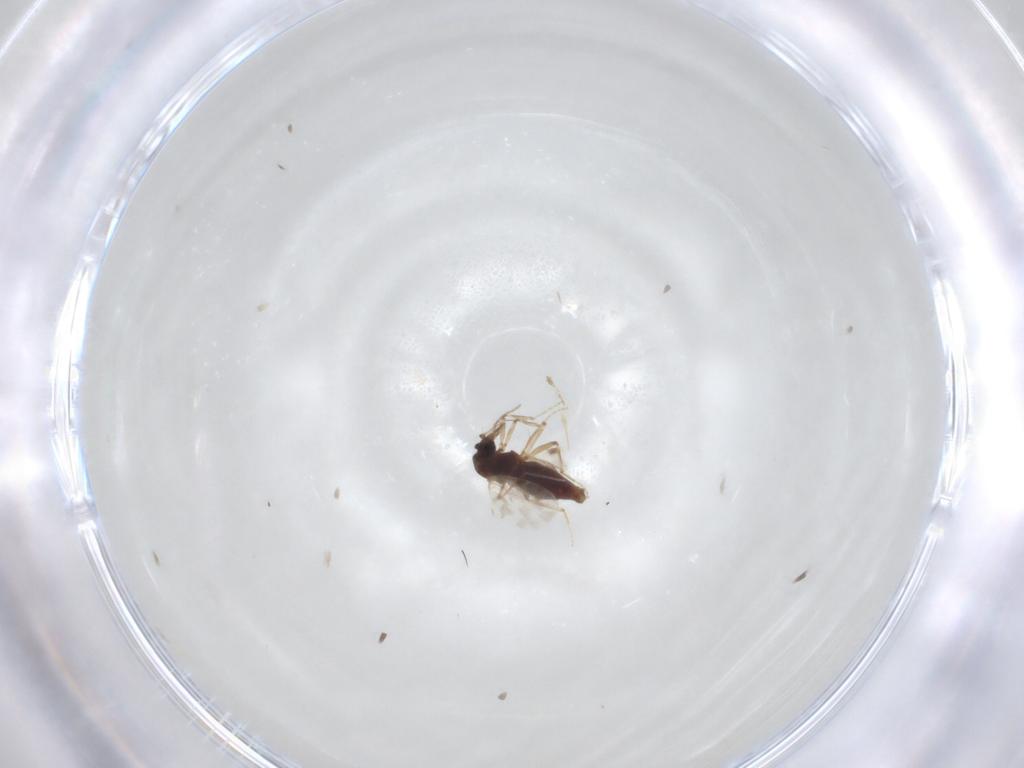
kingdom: Animalia
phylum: Arthropoda
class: Insecta
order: Diptera
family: Ceratopogonidae
